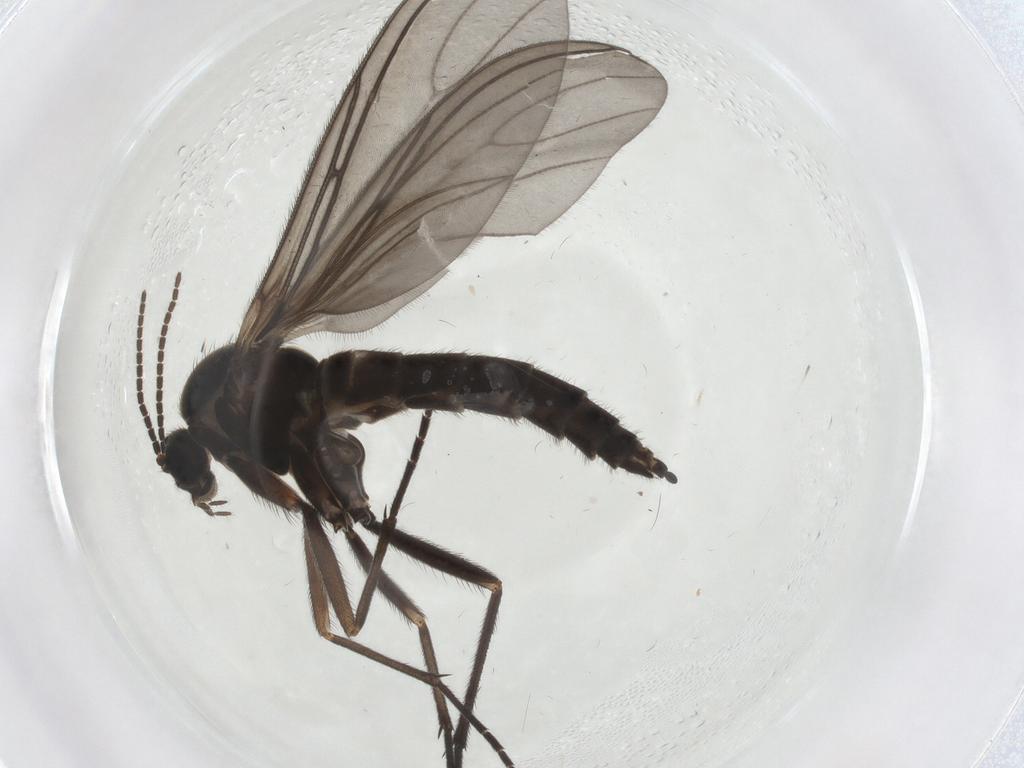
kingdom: Animalia
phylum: Arthropoda
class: Insecta
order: Diptera
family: Sciaridae
